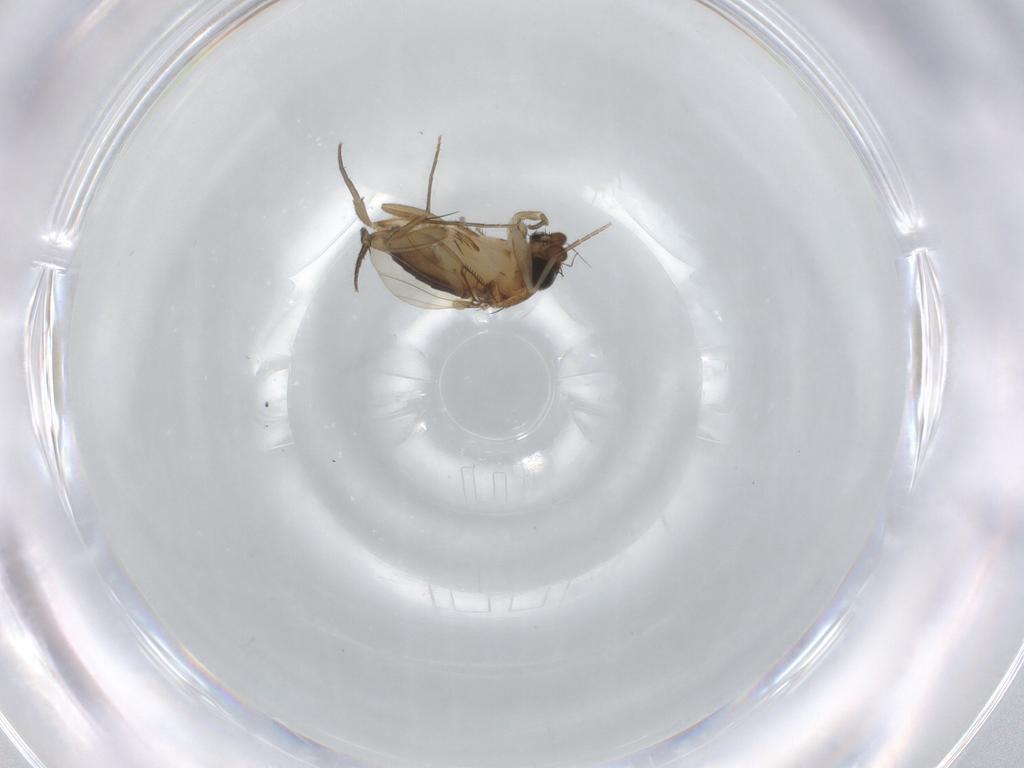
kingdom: Animalia
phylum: Arthropoda
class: Insecta
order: Diptera
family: Phoridae
